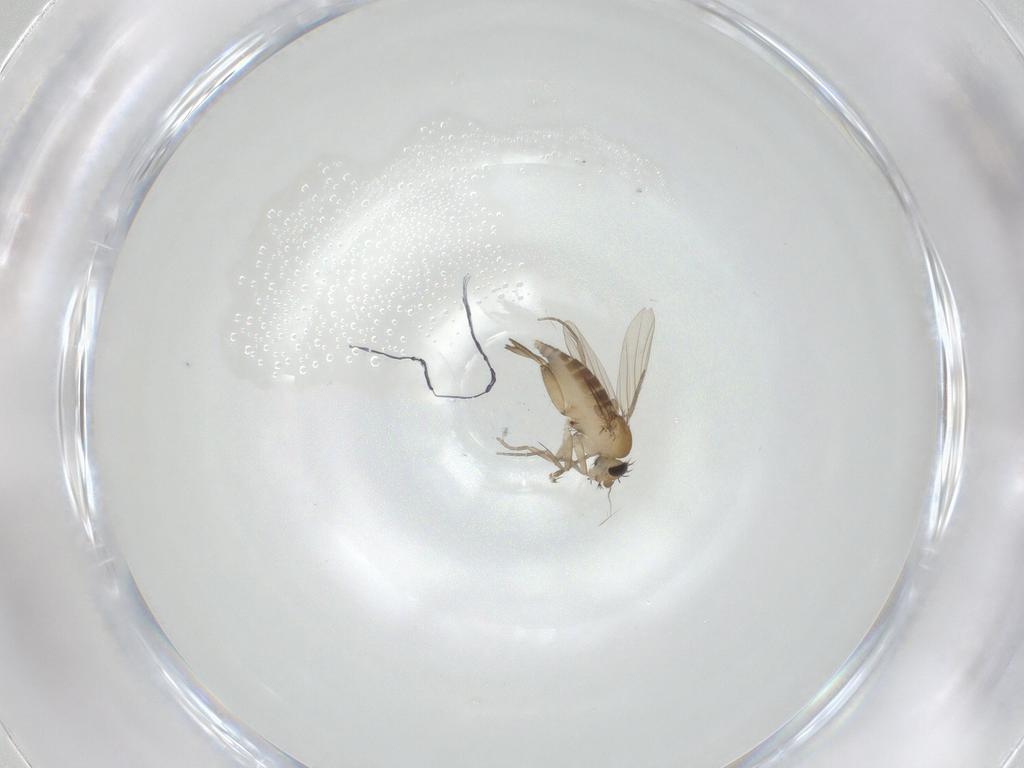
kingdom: Animalia
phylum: Arthropoda
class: Insecta
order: Diptera
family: Phoridae
